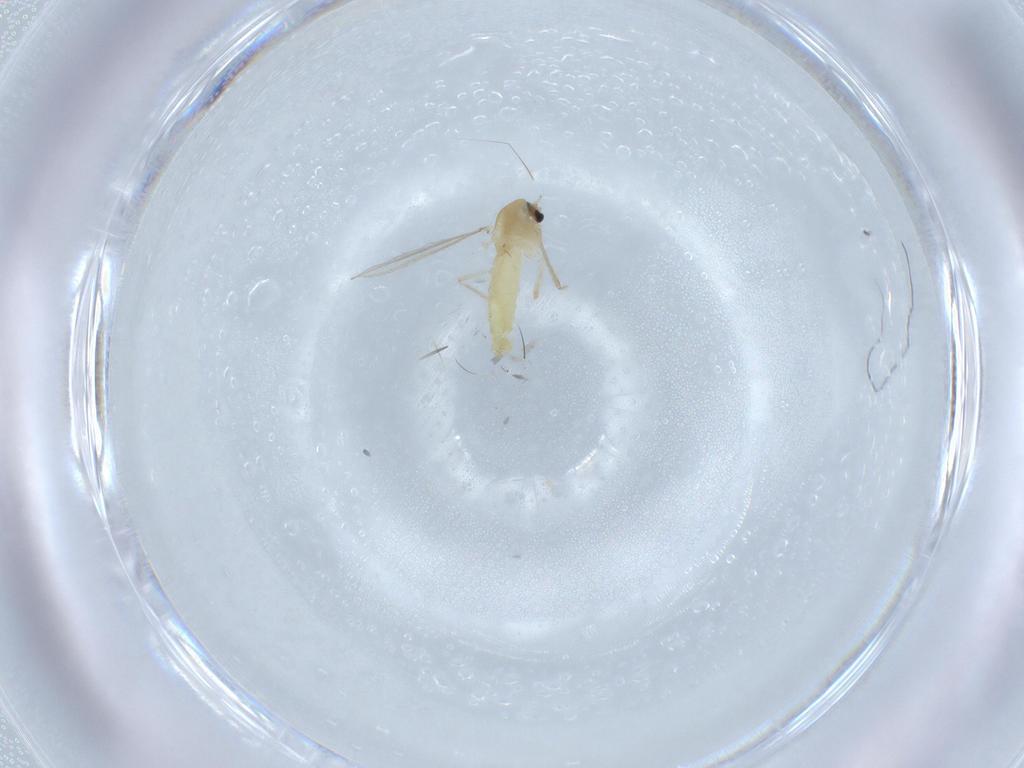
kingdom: Animalia
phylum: Arthropoda
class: Insecta
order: Diptera
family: Chironomidae
